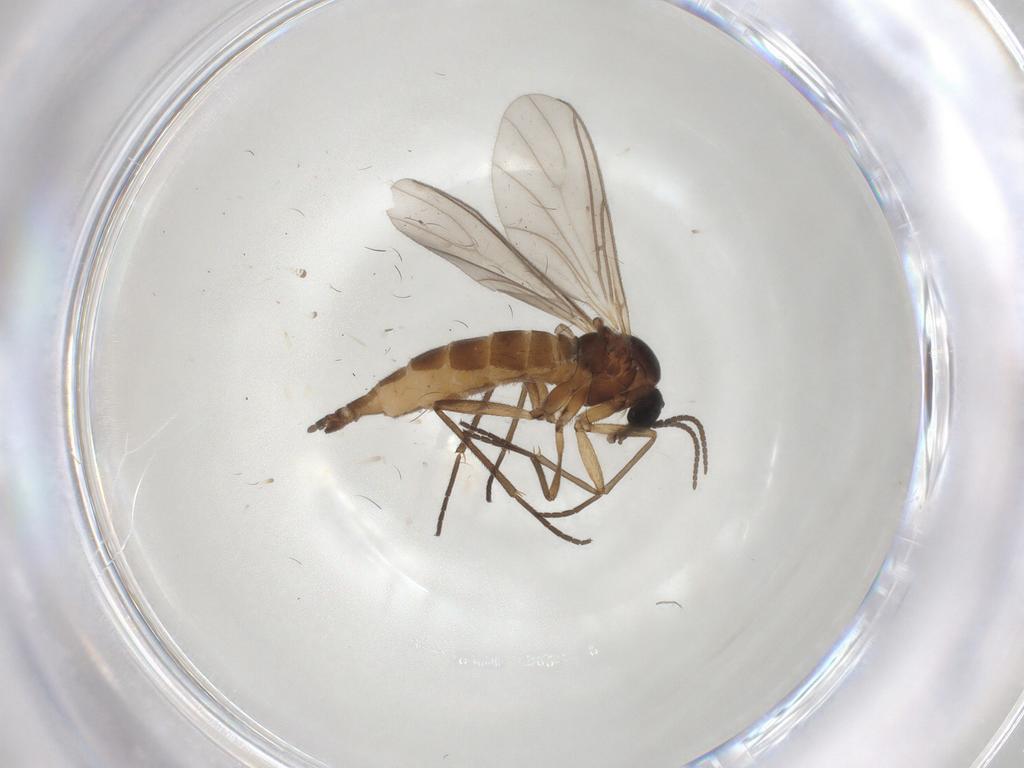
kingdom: Animalia
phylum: Arthropoda
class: Insecta
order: Diptera
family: Sciaridae
